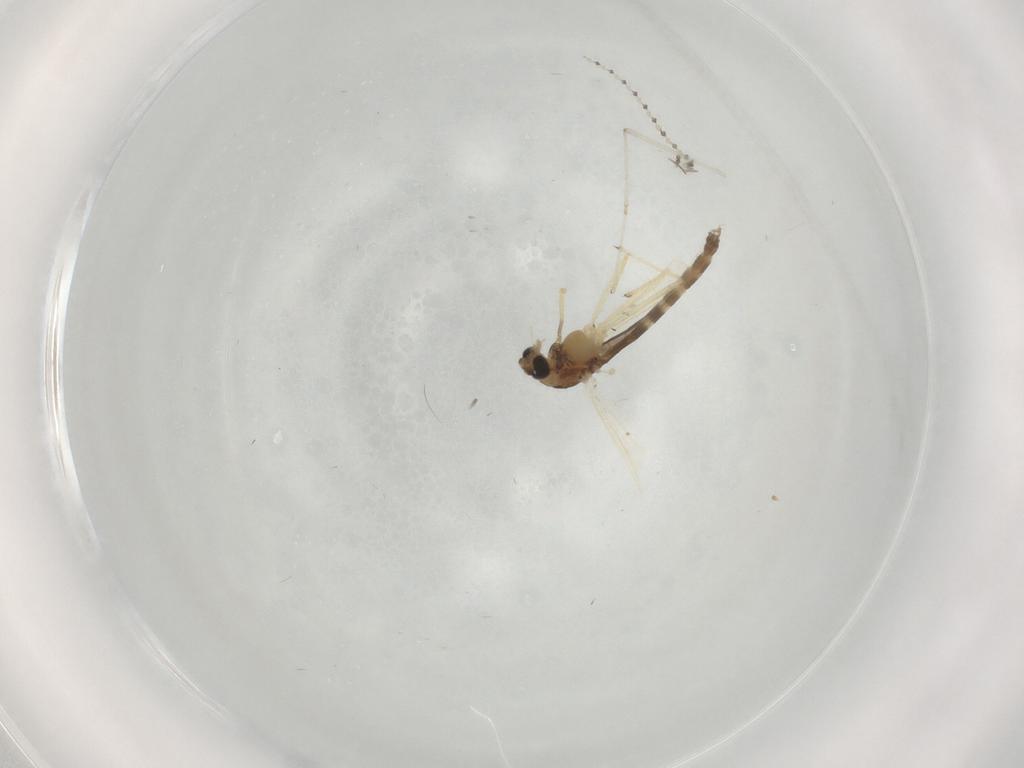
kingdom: Animalia
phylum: Arthropoda
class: Insecta
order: Diptera
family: Chironomidae
